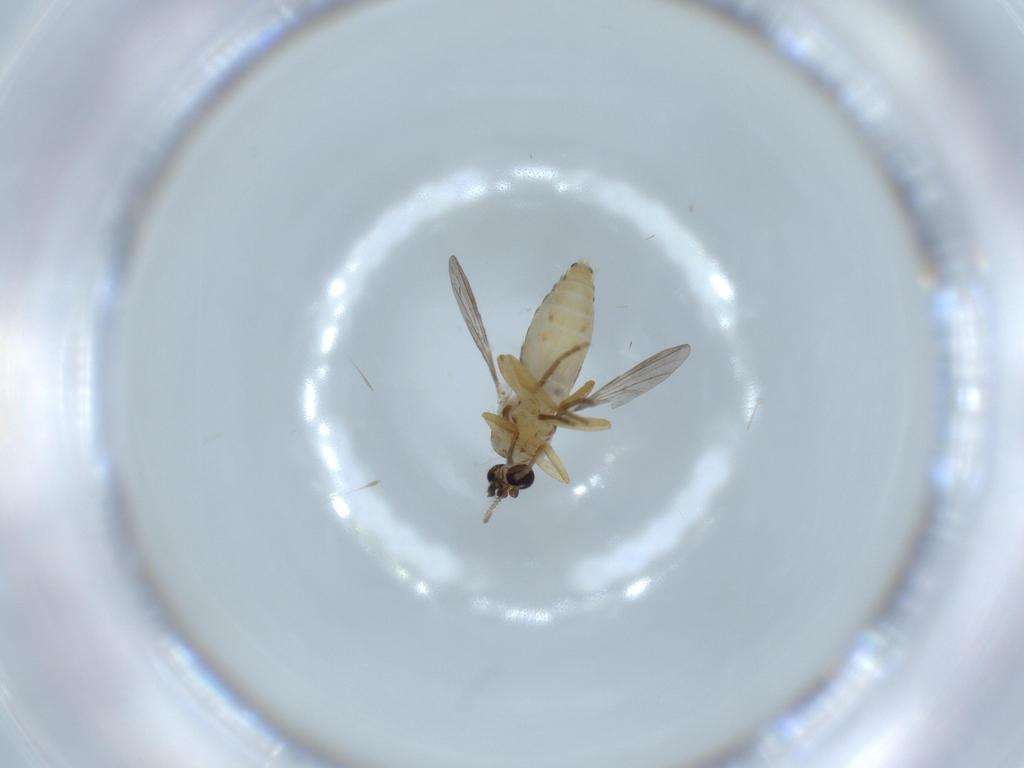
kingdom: Animalia
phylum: Arthropoda
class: Insecta
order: Diptera
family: Ceratopogonidae
